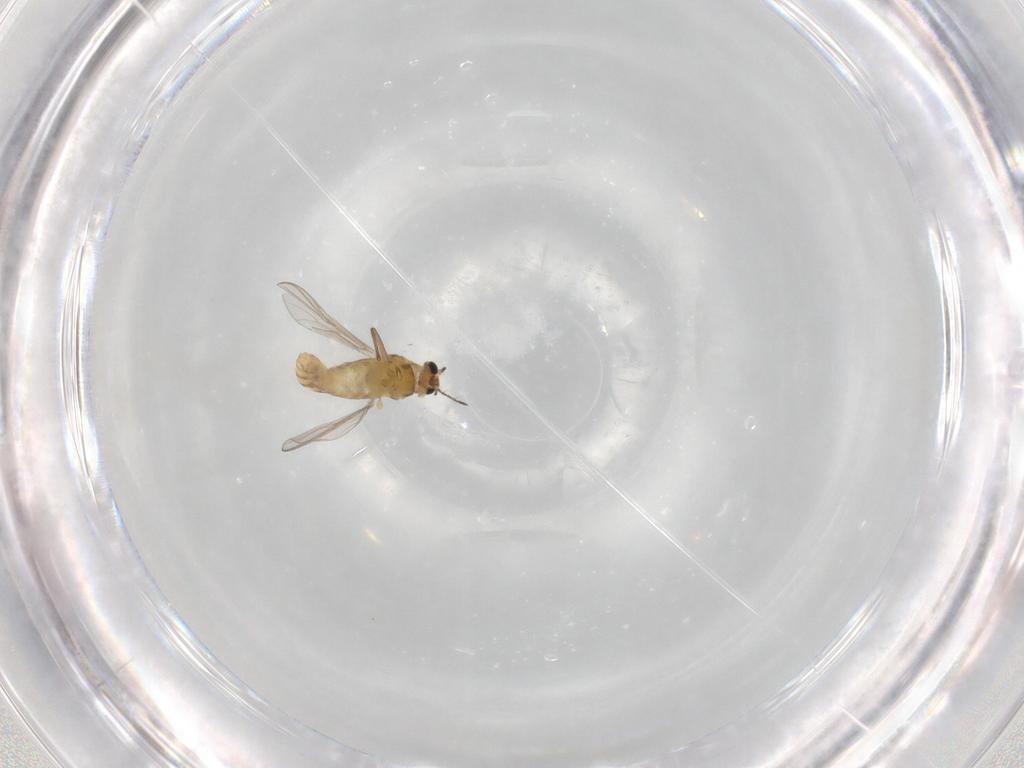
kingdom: Animalia
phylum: Arthropoda
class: Insecta
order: Diptera
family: Chironomidae
